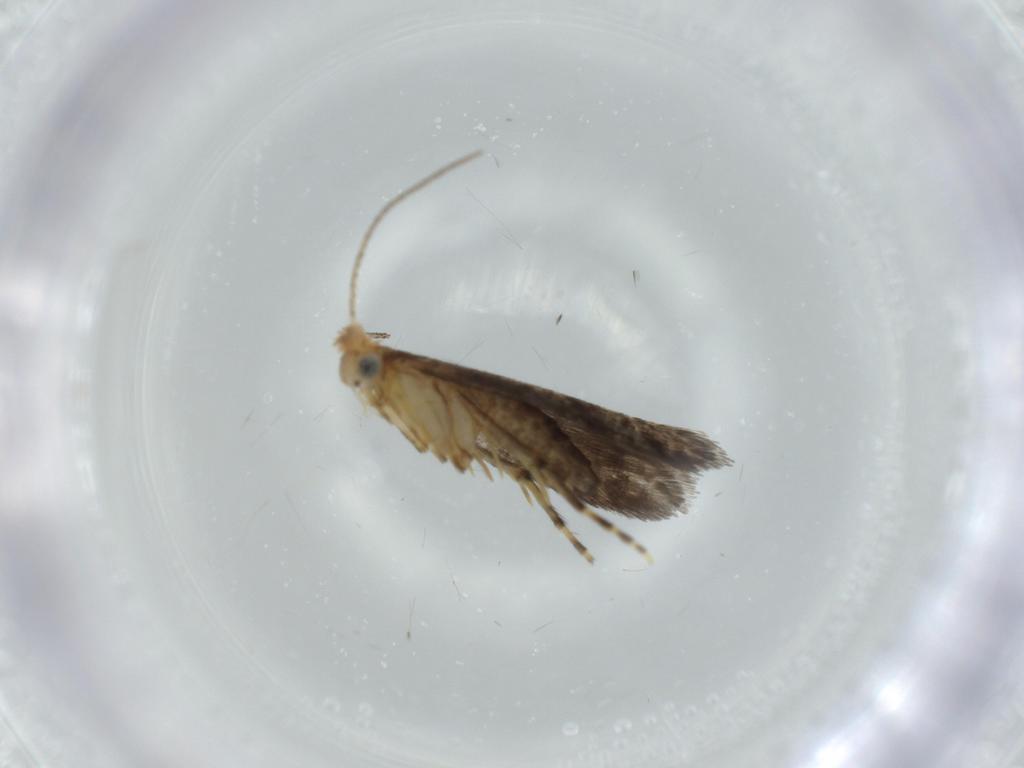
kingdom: Animalia
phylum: Arthropoda
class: Insecta
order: Lepidoptera
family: Argyresthiidae
